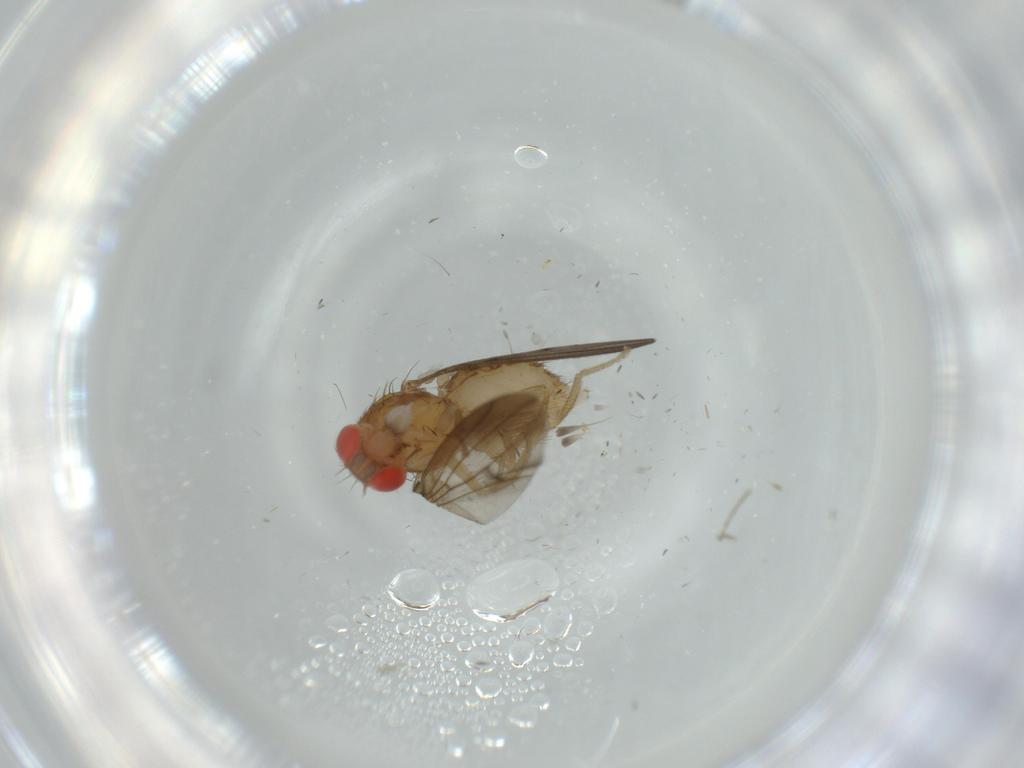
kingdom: Animalia
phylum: Arthropoda
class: Insecta
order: Diptera
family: Drosophilidae
